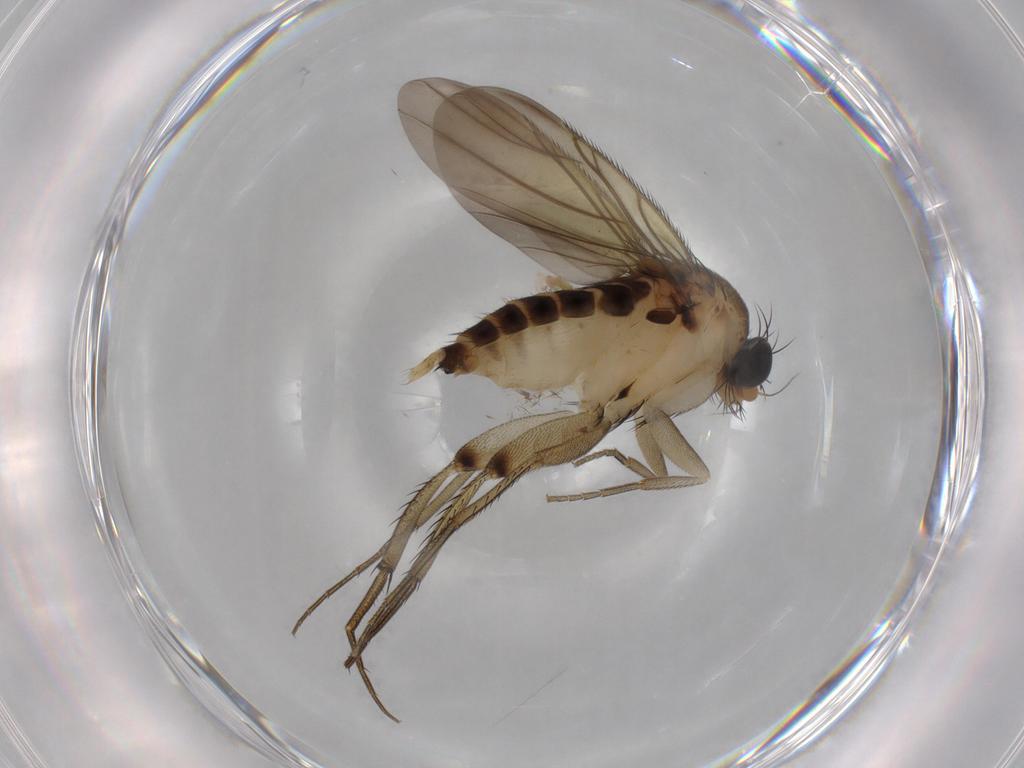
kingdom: Animalia
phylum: Arthropoda
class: Insecta
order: Diptera
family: Sciaridae
